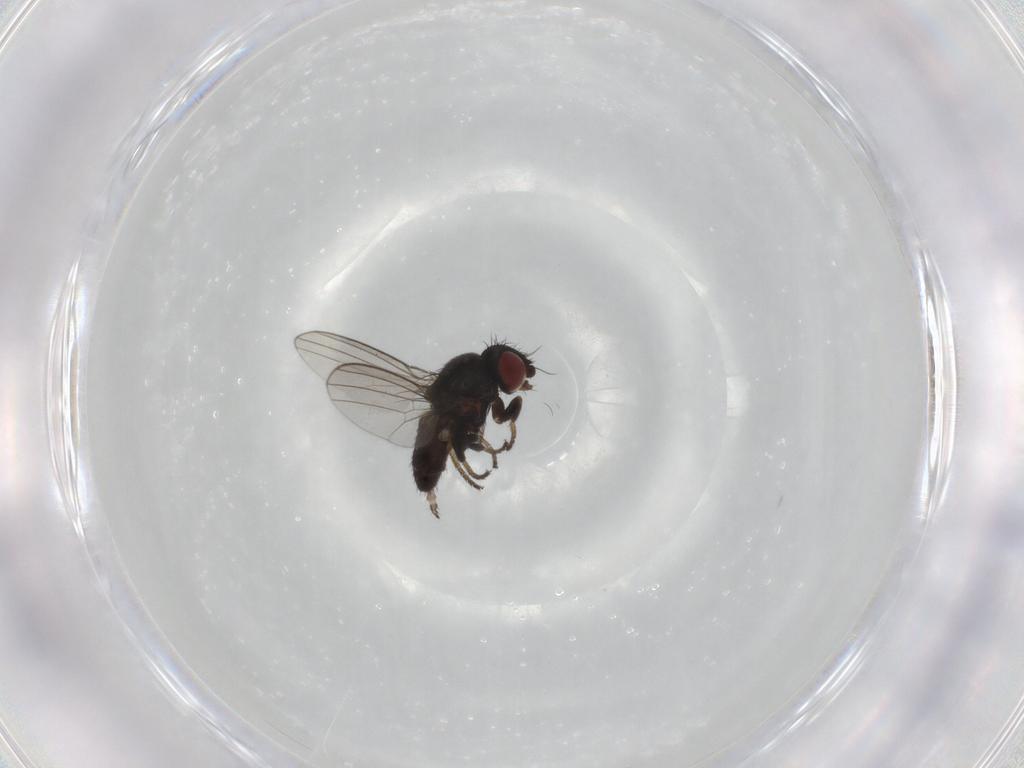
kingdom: Animalia
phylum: Arthropoda
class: Insecta
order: Diptera
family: Milichiidae
